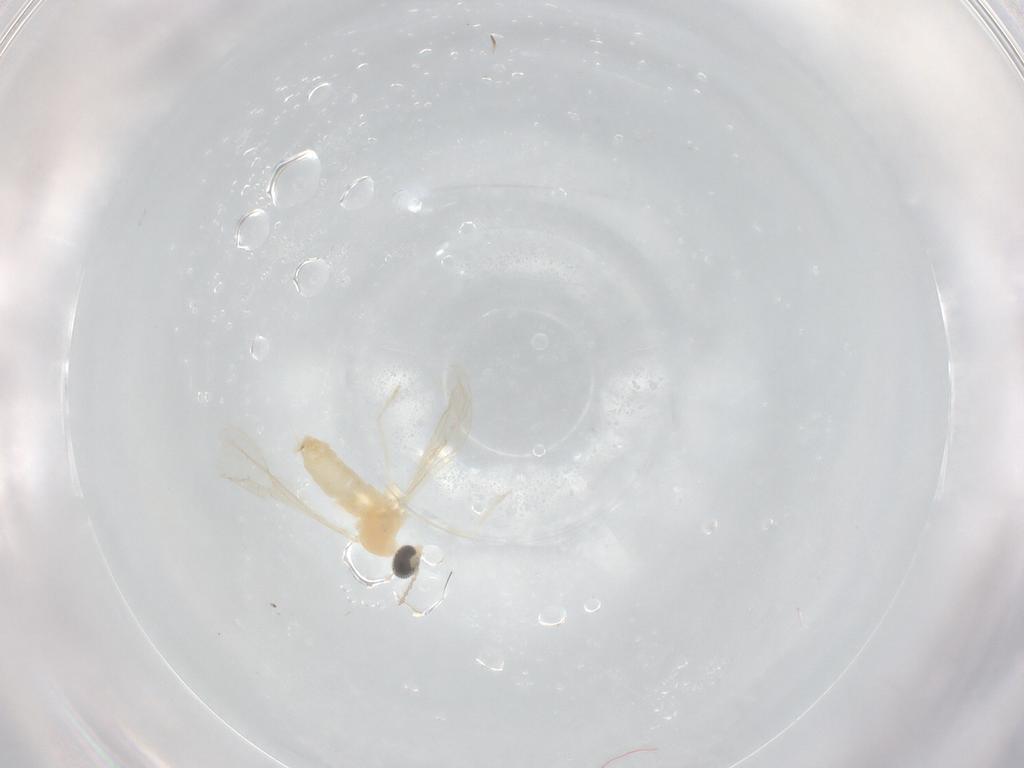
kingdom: Animalia
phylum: Arthropoda
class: Insecta
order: Diptera
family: Cecidomyiidae
